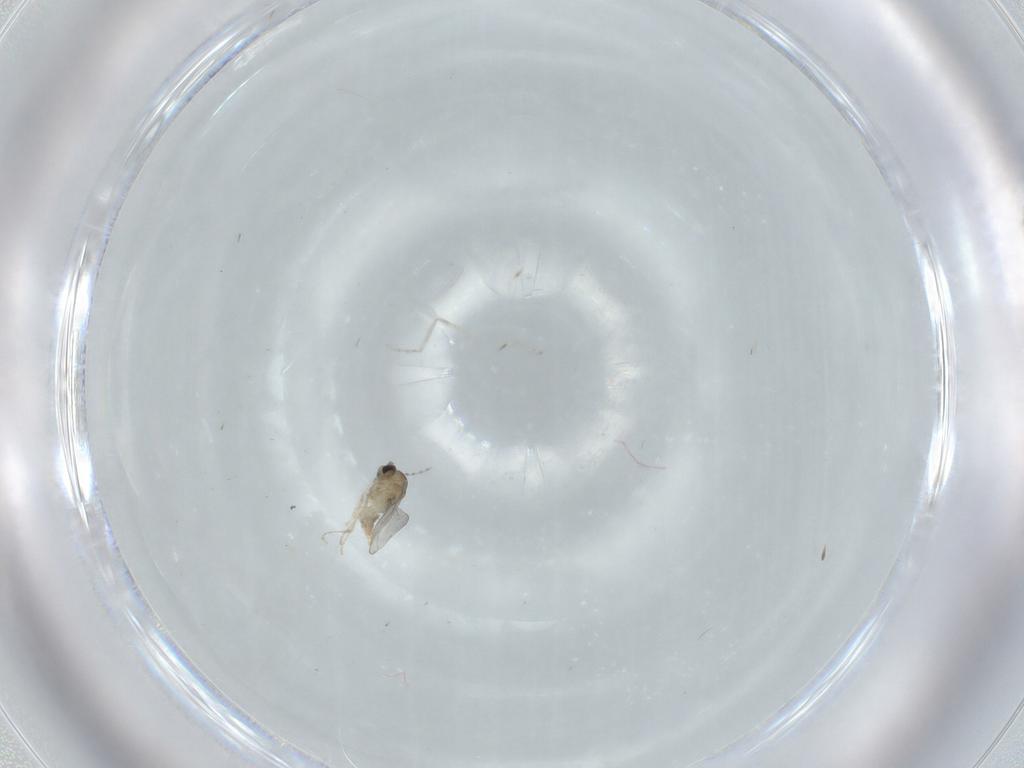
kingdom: Animalia
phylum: Arthropoda
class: Insecta
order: Diptera
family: Cecidomyiidae
